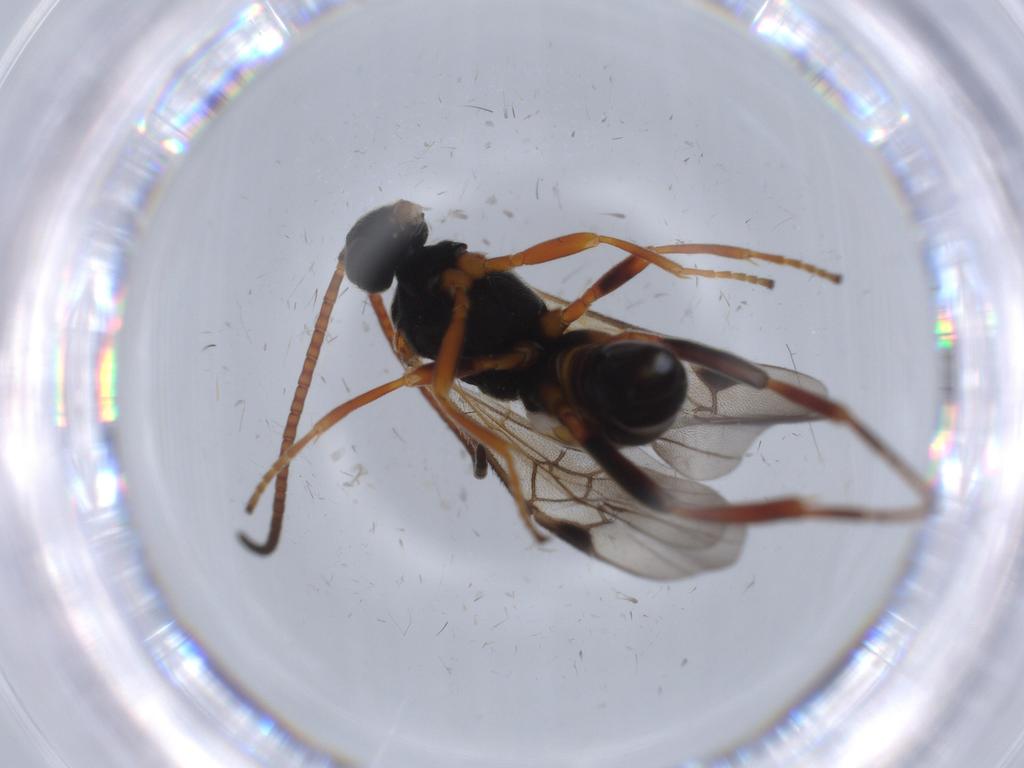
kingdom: Animalia
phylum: Arthropoda
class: Insecta
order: Hymenoptera
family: Braconidae
